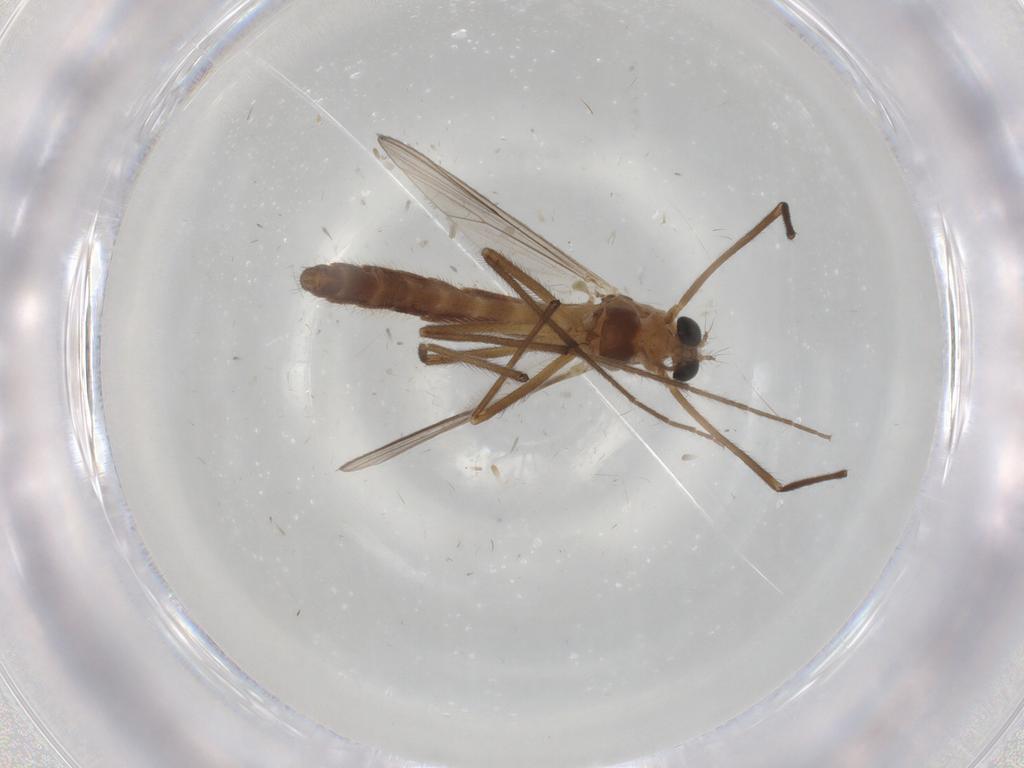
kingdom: Animalia
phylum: Arthropoda
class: Insecta
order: Diptera
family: Chironomidae
